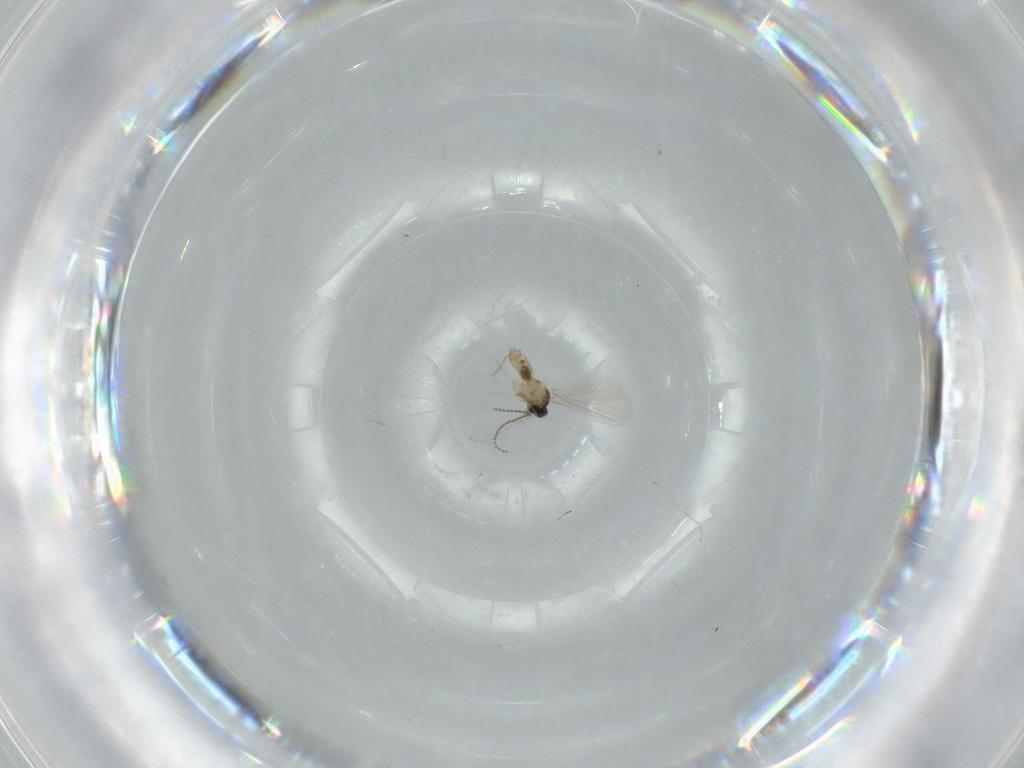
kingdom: Animalia
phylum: Arthropoda
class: Insecta
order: Diptera
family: Cecidomyiidae
